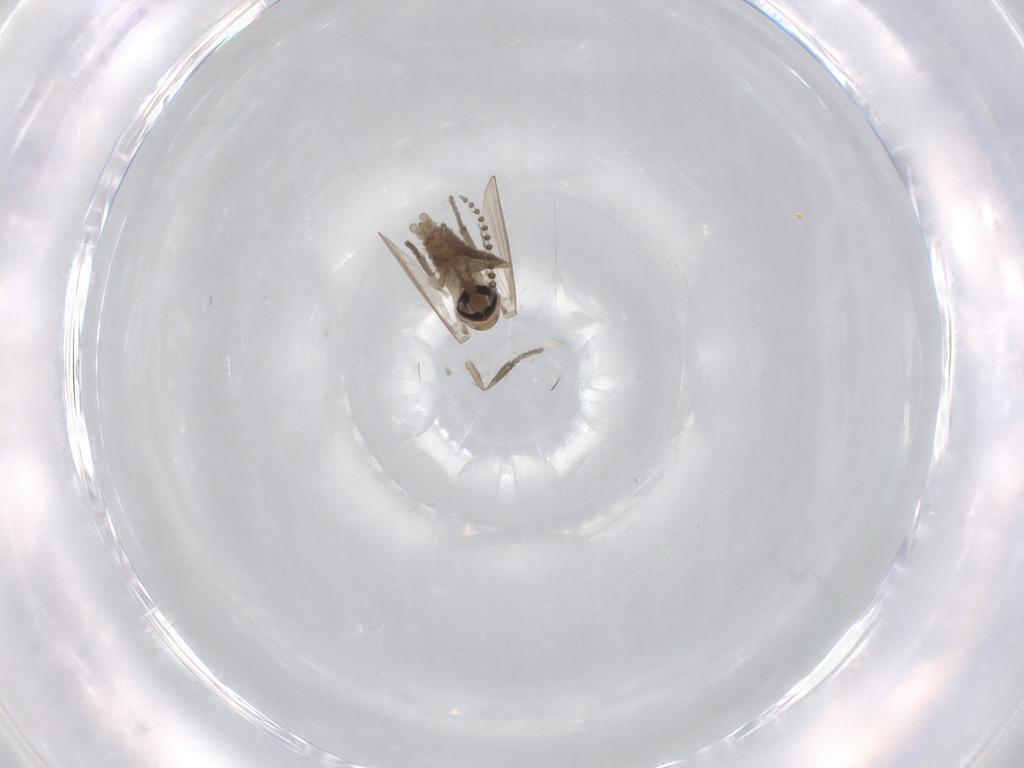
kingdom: Animalia
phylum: Arthropoda
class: Insecta
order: Diptera
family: Psychodidae
